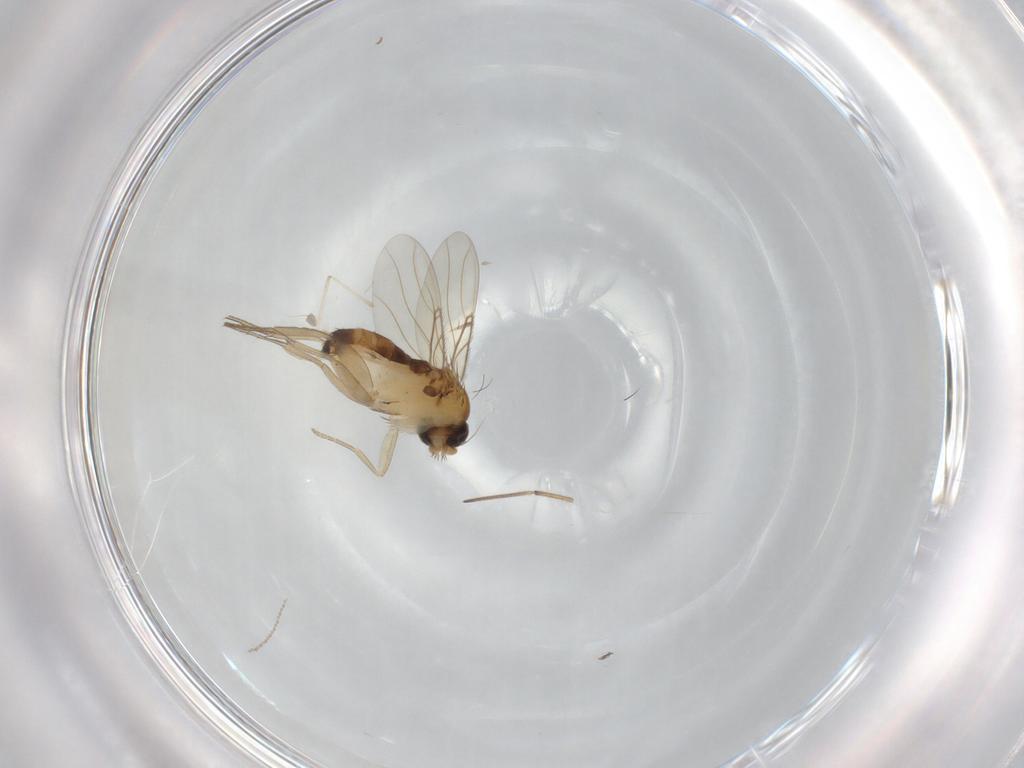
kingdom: Animalia
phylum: Arthropoda
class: Insecta
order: Diptera
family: Phoridae
